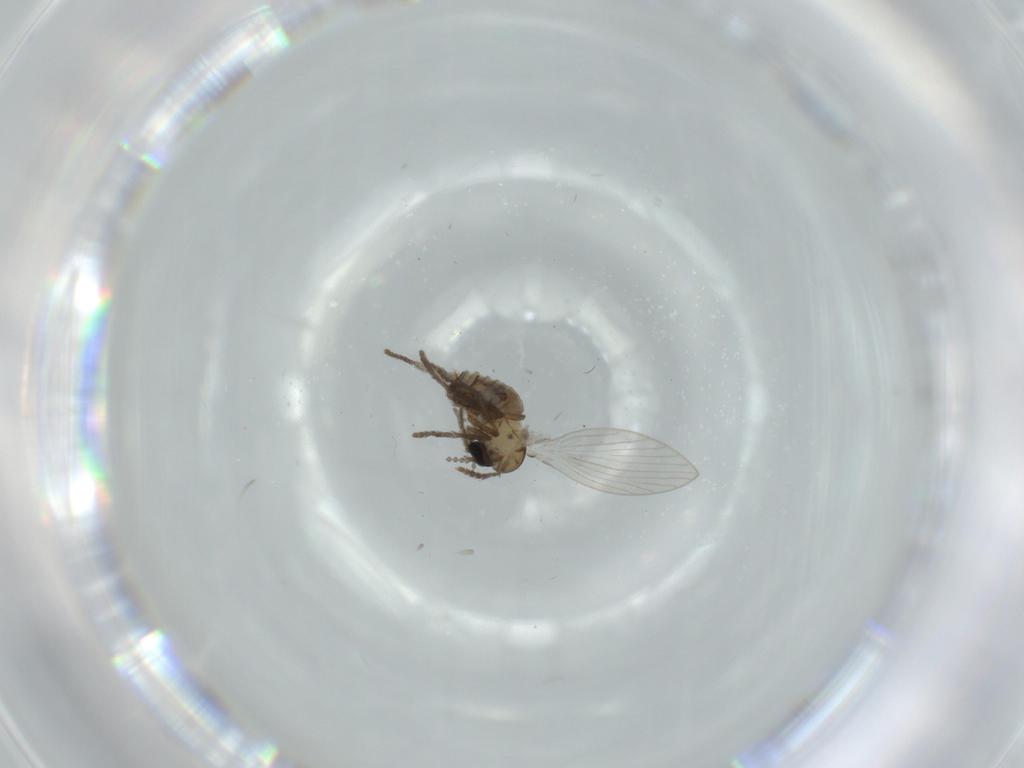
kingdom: Animalia
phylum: Arthropoda
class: Insecta
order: Diptera
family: Psychodidae
